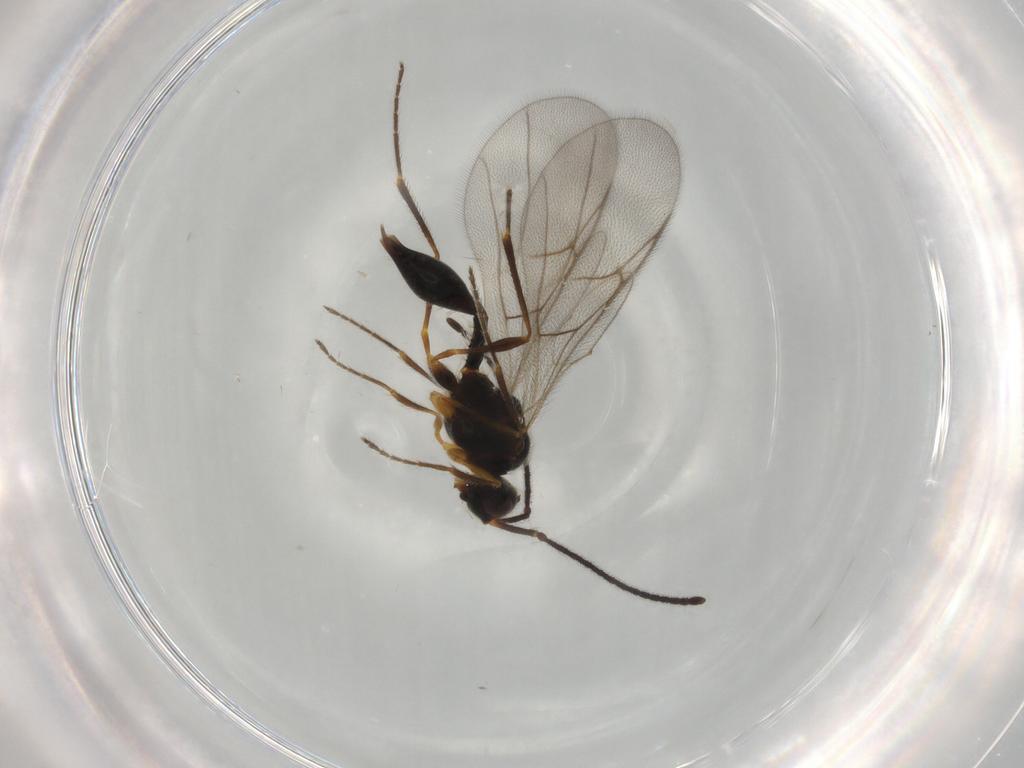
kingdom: Animalia
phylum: Arthropoda
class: Insecta
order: Hymenoptera
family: Diapriidae
